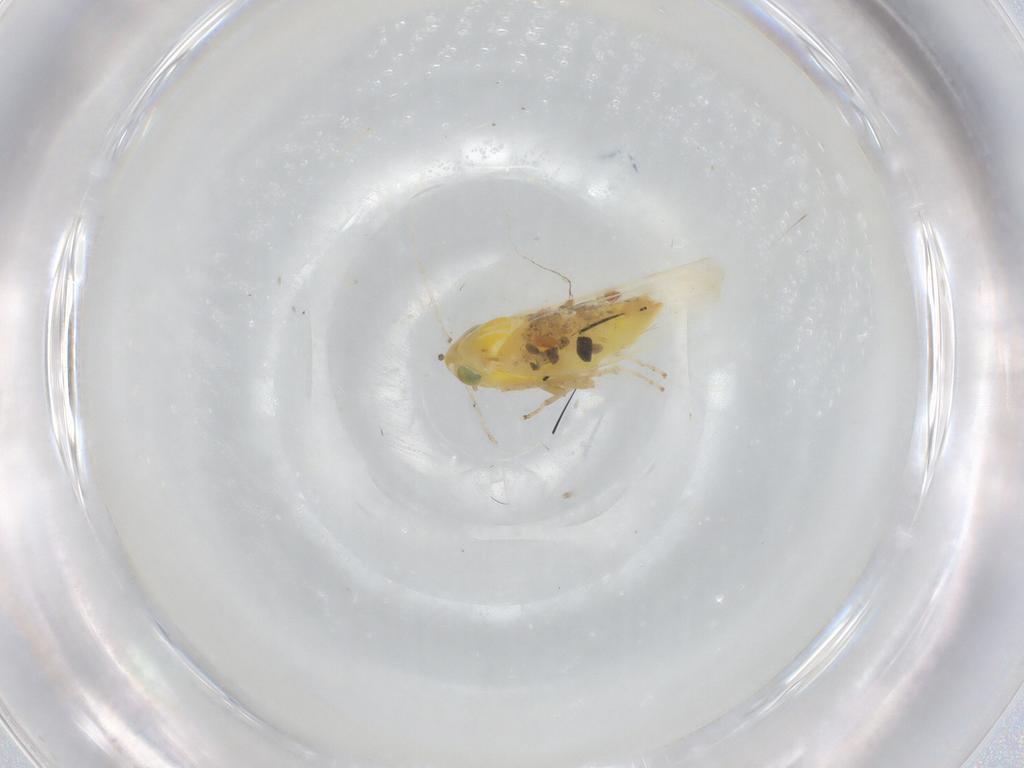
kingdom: Animalia
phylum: Arthropoda
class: Insecta
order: Hemiptera
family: Cicadellidae
